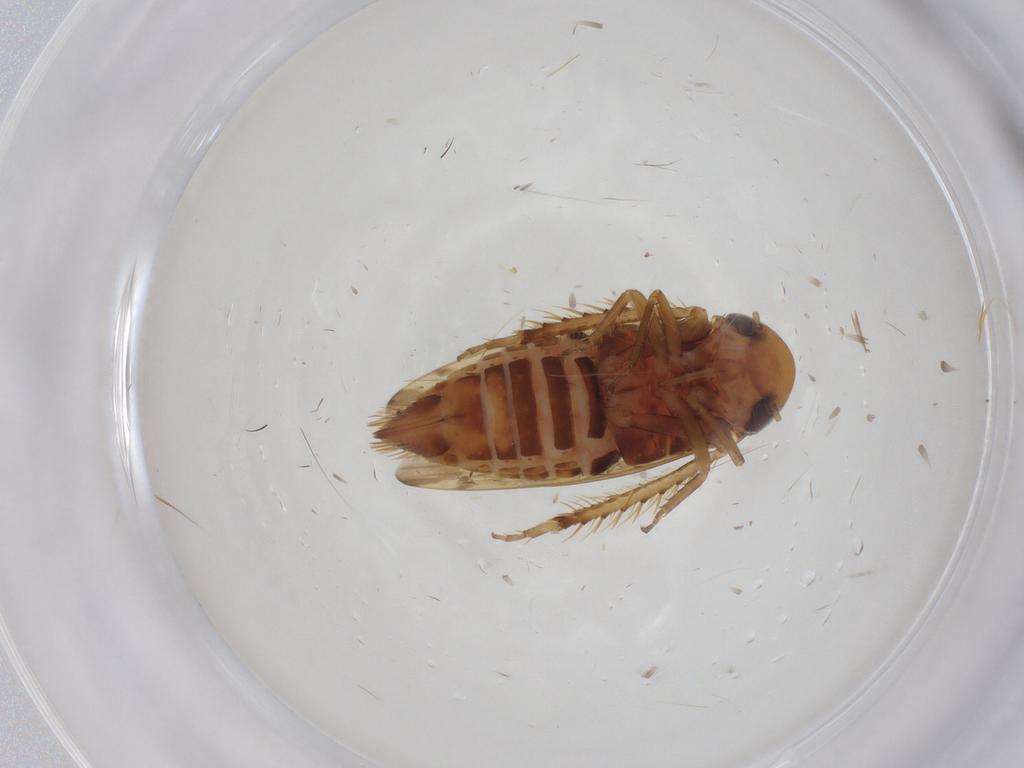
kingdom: Animalia
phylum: Arthropoda
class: Insecta
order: Hemiptera
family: Cicadellidae
